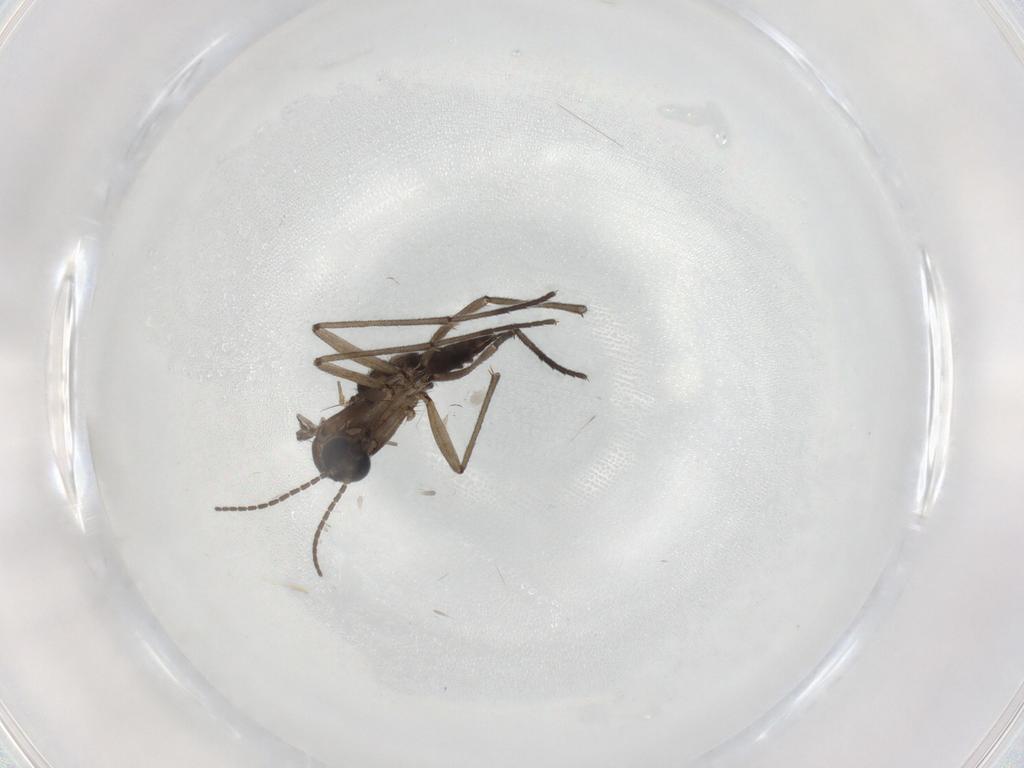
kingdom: Animalia
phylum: Arthropoda
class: Insecta
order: Diptera
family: Sciaridae
